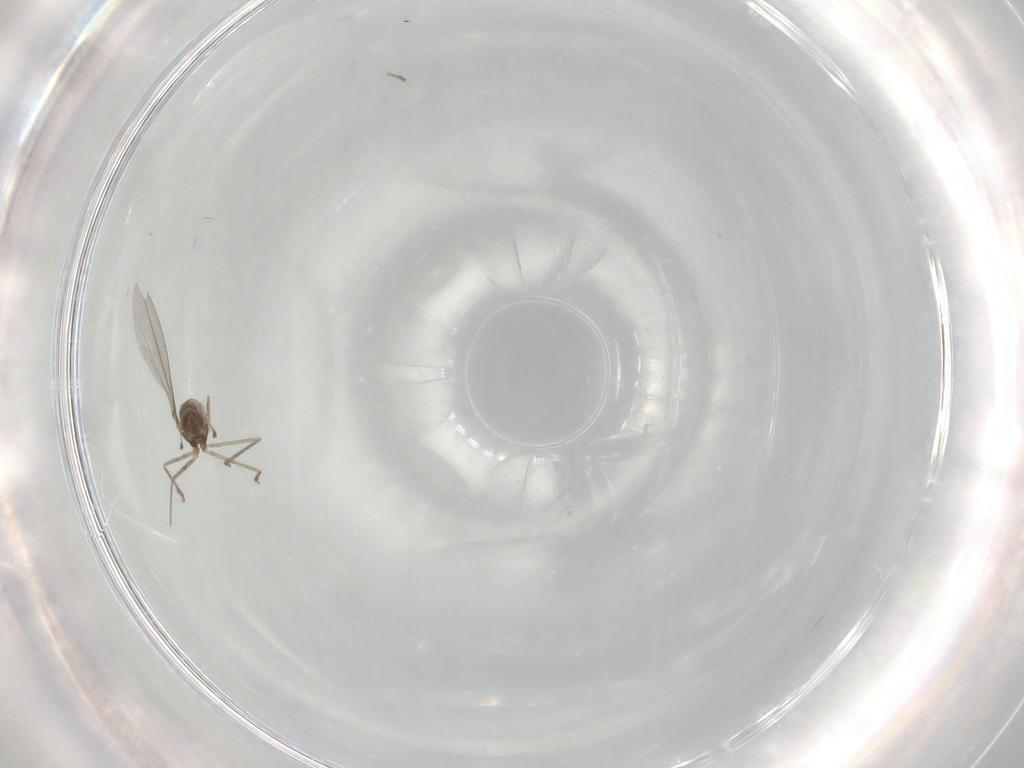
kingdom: Animalia
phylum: Arthropoda
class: Insecta
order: Diptera
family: Cecidomyiidae
